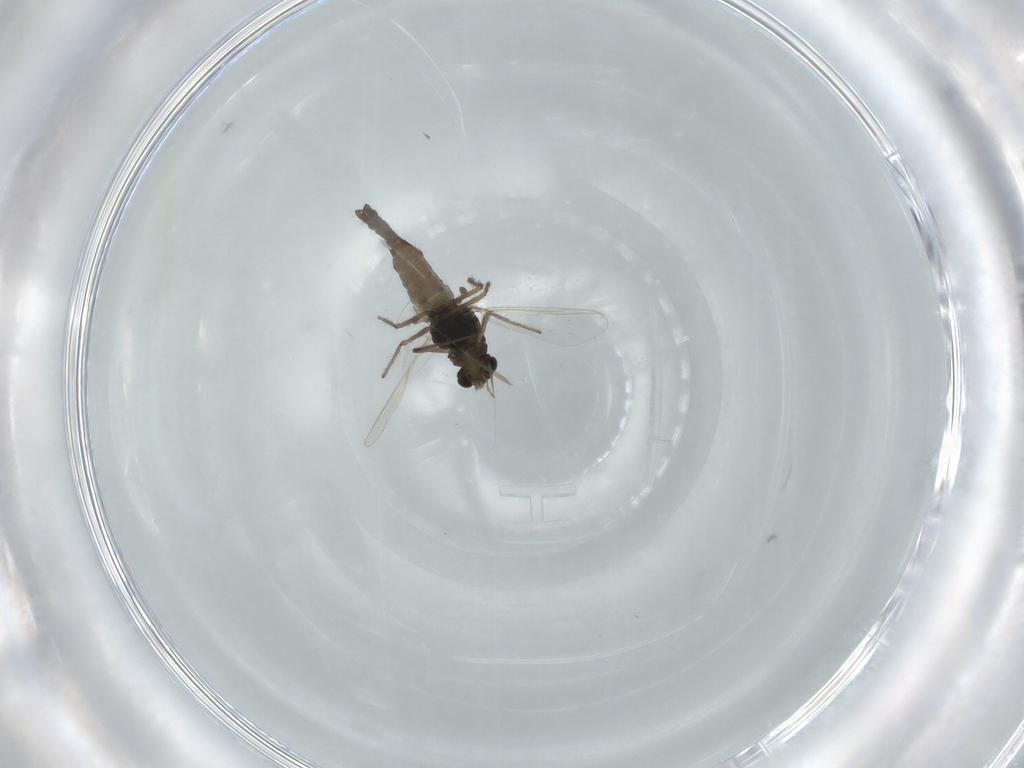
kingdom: Animalia
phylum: Arthropoda
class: Insecta
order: Diptera
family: Chironomidae
